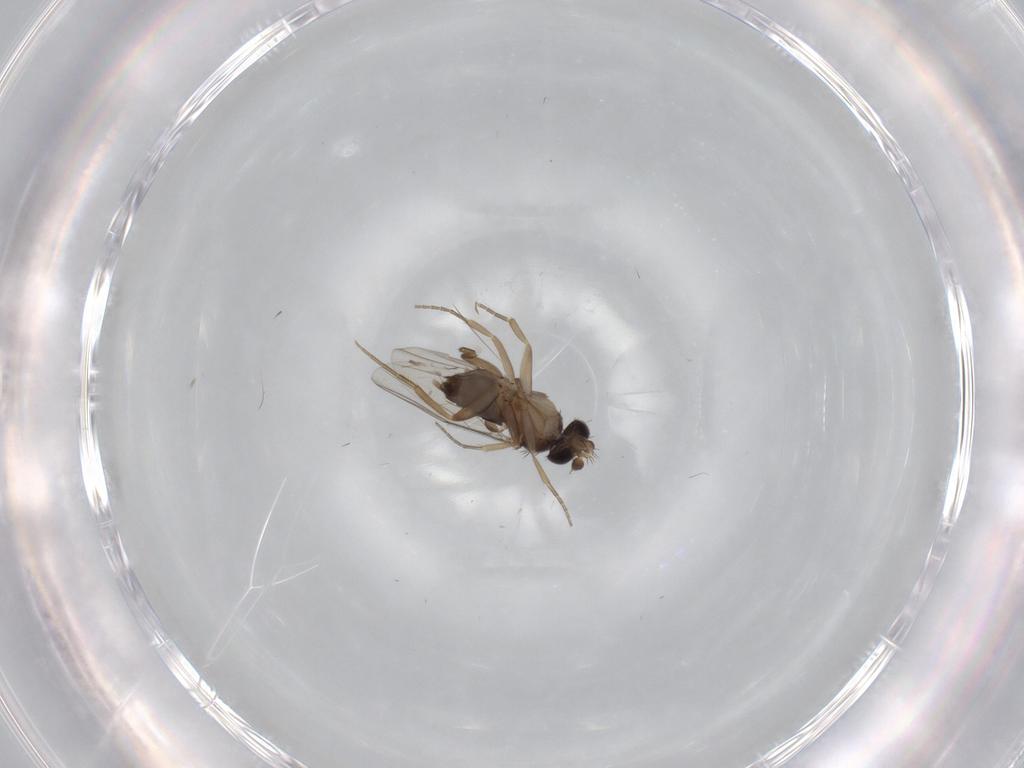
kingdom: Animalia
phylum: Arthropoda
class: Insecta
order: Diptera
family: Phoridae
